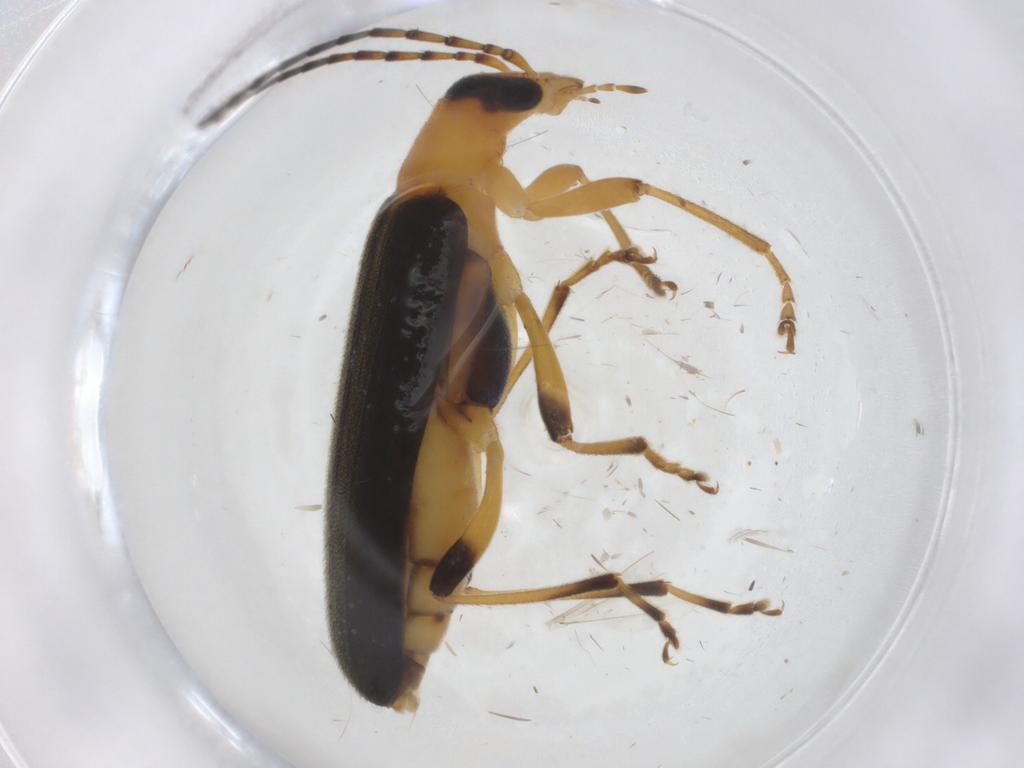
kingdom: Animalia
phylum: Arthropoda
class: Insecta
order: Coleoptera
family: Oedemeridae
